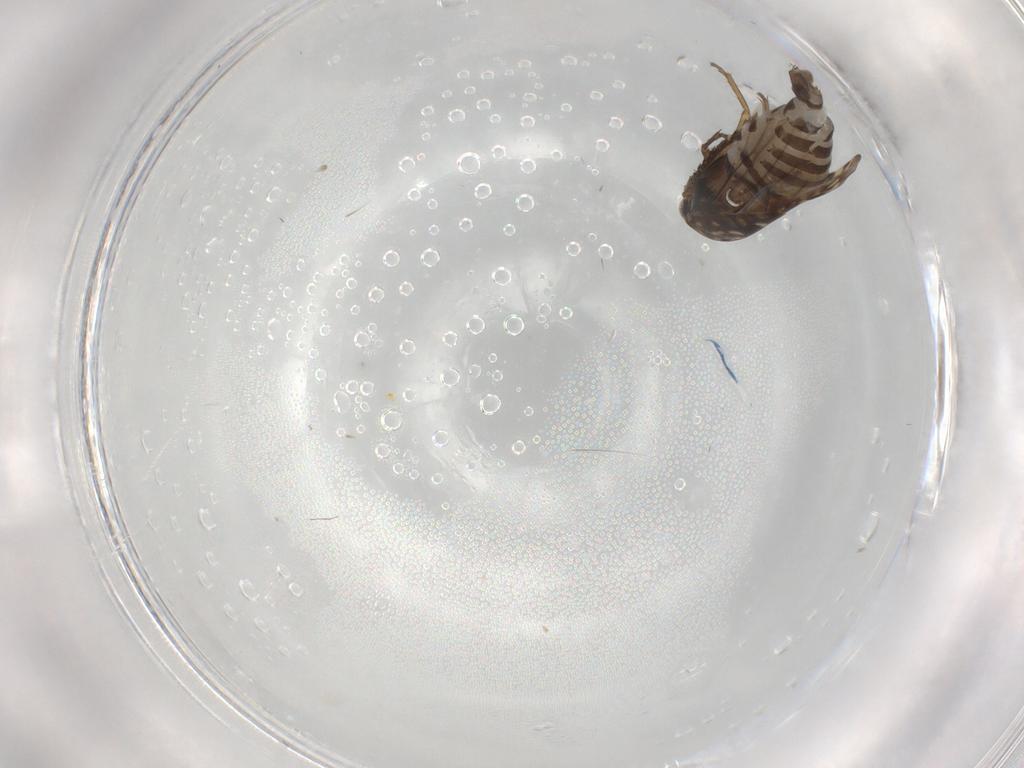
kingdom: Animalia
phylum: Arthropoda
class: Insecta
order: Hemiptera
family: Cicadellidae
